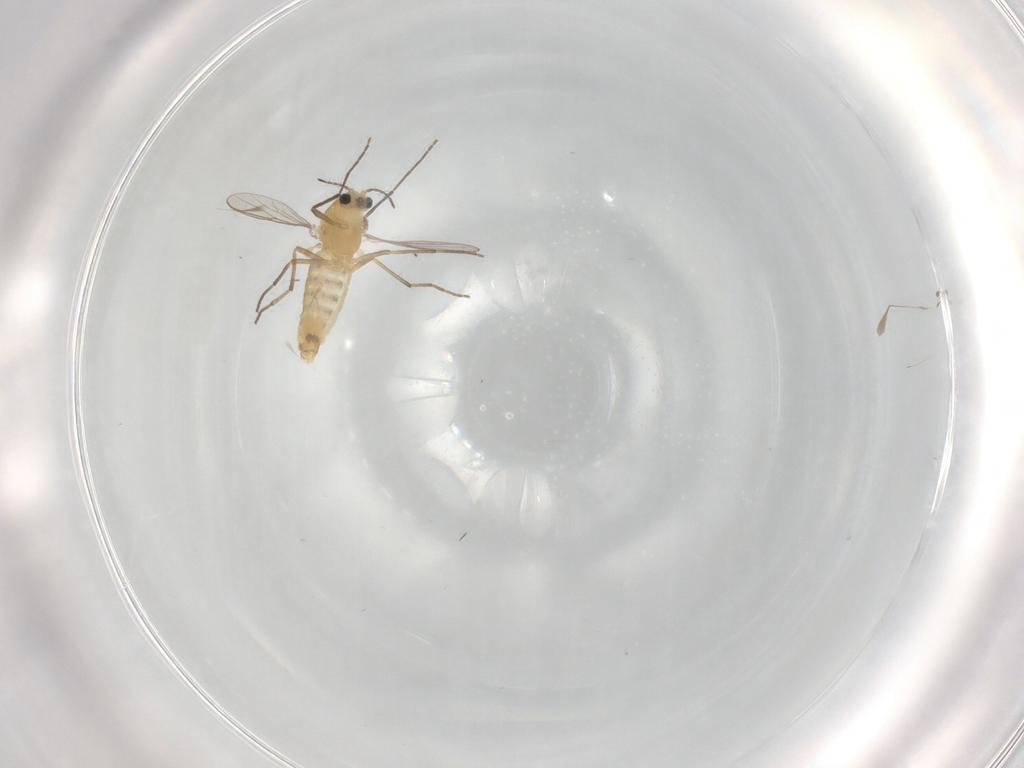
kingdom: Animalia
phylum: Arthropoda
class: Insecta
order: Diptera
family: Chironomidae
